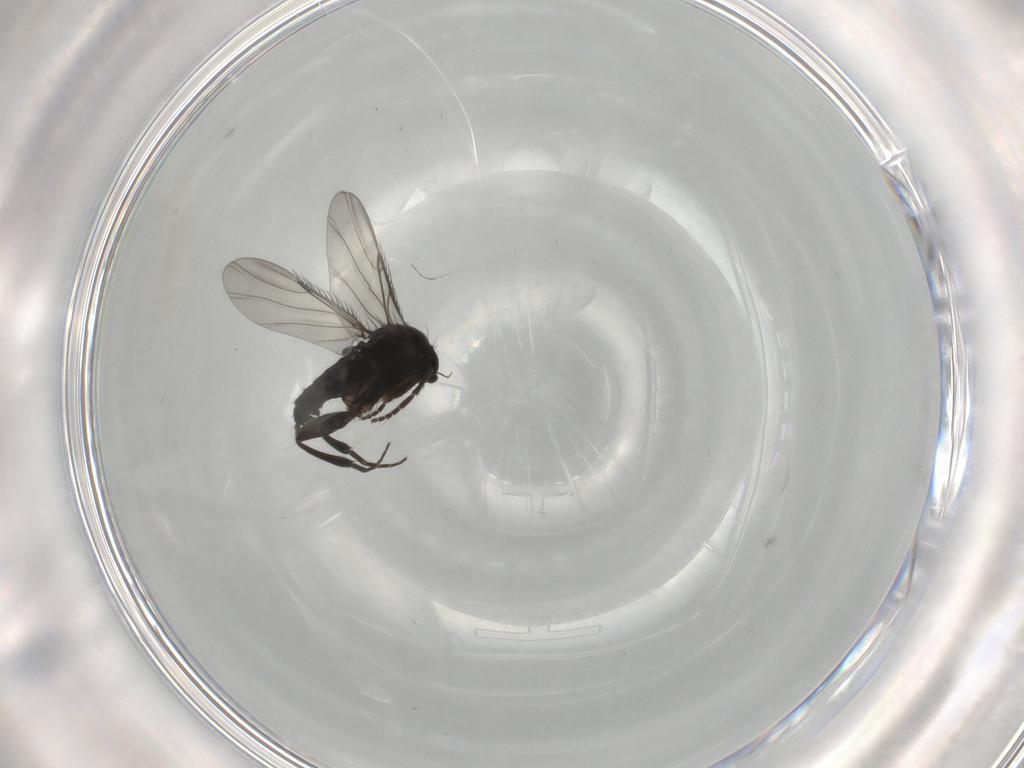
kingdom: Animalia
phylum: Arthropoda
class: Insecta
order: Diptera
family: Phoridae
